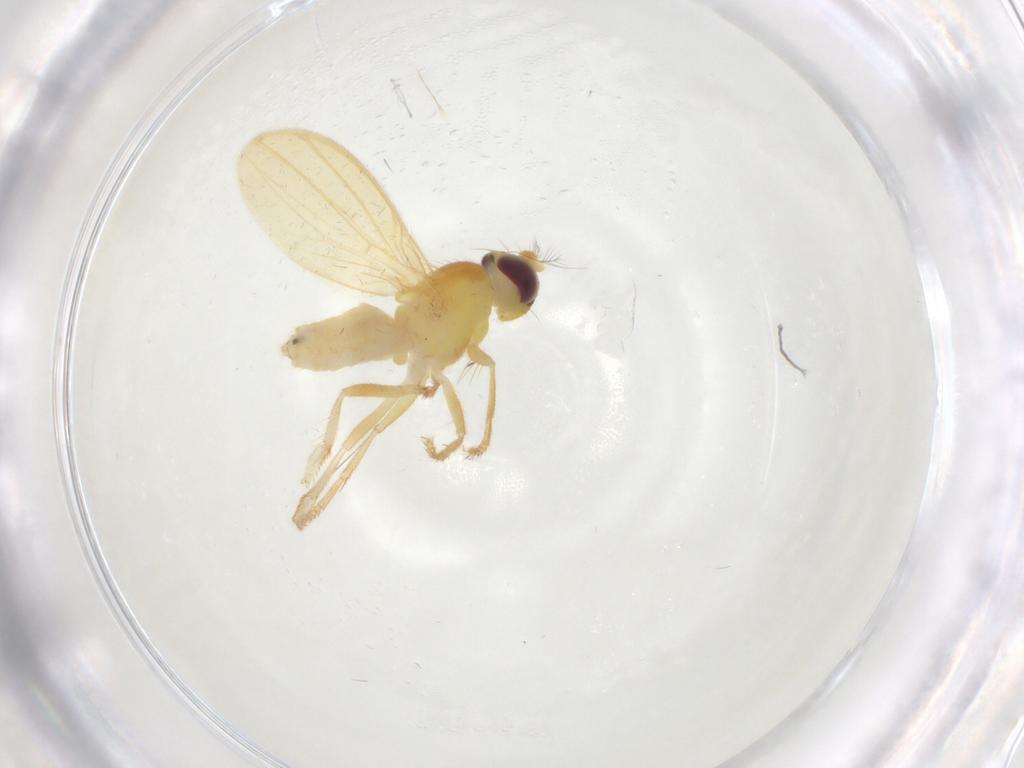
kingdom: Animalia
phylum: Arthropoda
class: Insecta
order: Diptera
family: Periscelididae
